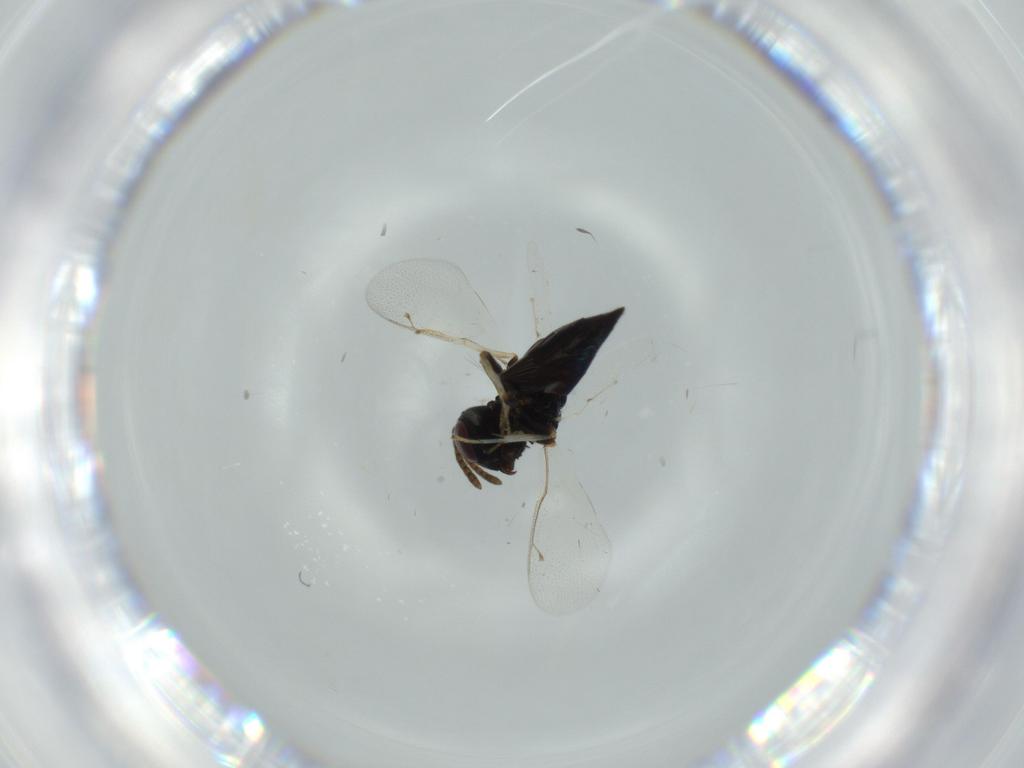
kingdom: Animalia
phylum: Arthropoda
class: Insecta
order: Hymenoptera
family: Pteromalidae
